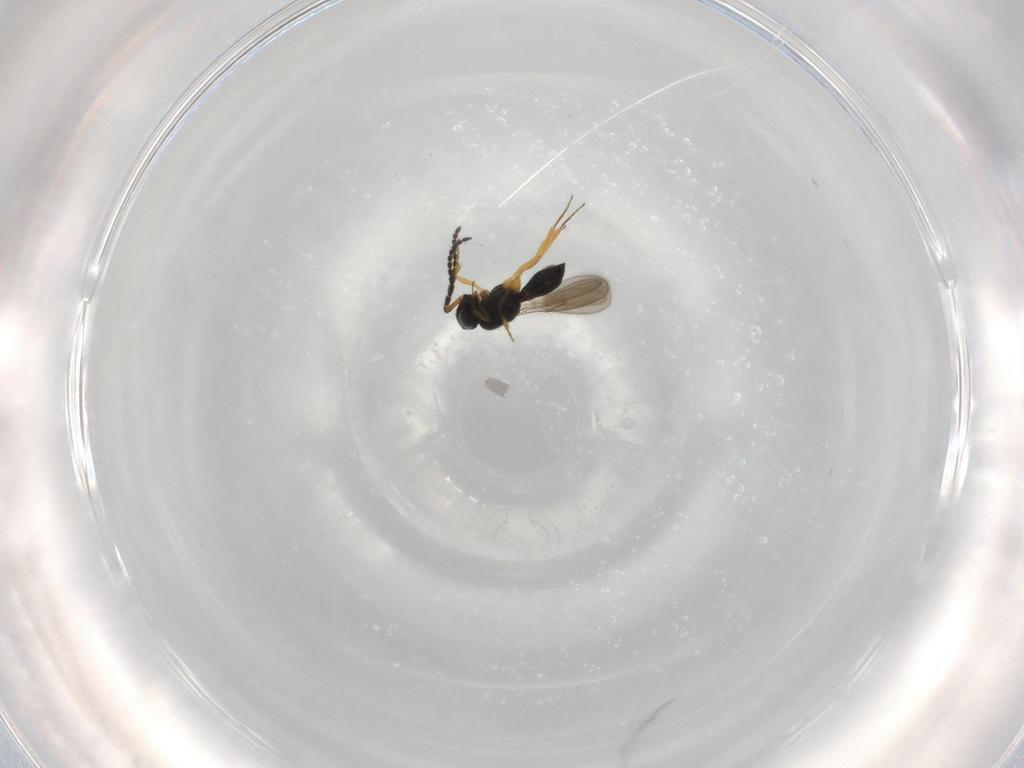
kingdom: Animalia
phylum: Arthropoda
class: Insecta
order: Hymenoptera
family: Scelionidae
